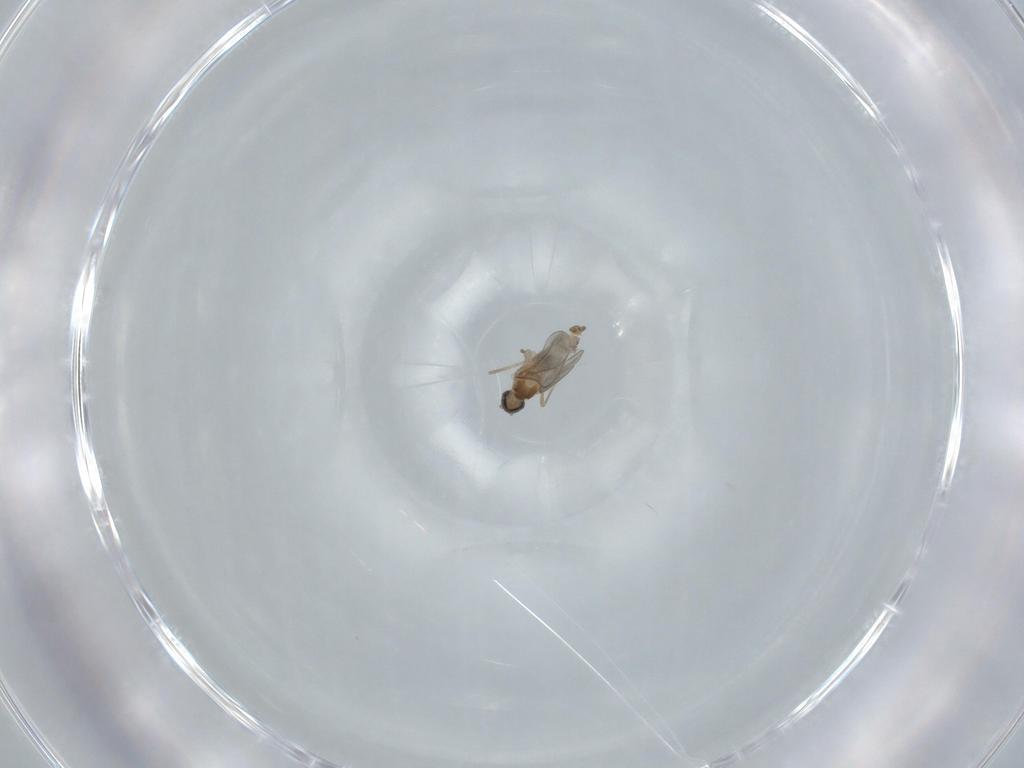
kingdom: Animalia
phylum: Arthropoda
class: Insecta
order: Diptera
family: Cecidomyiidae
